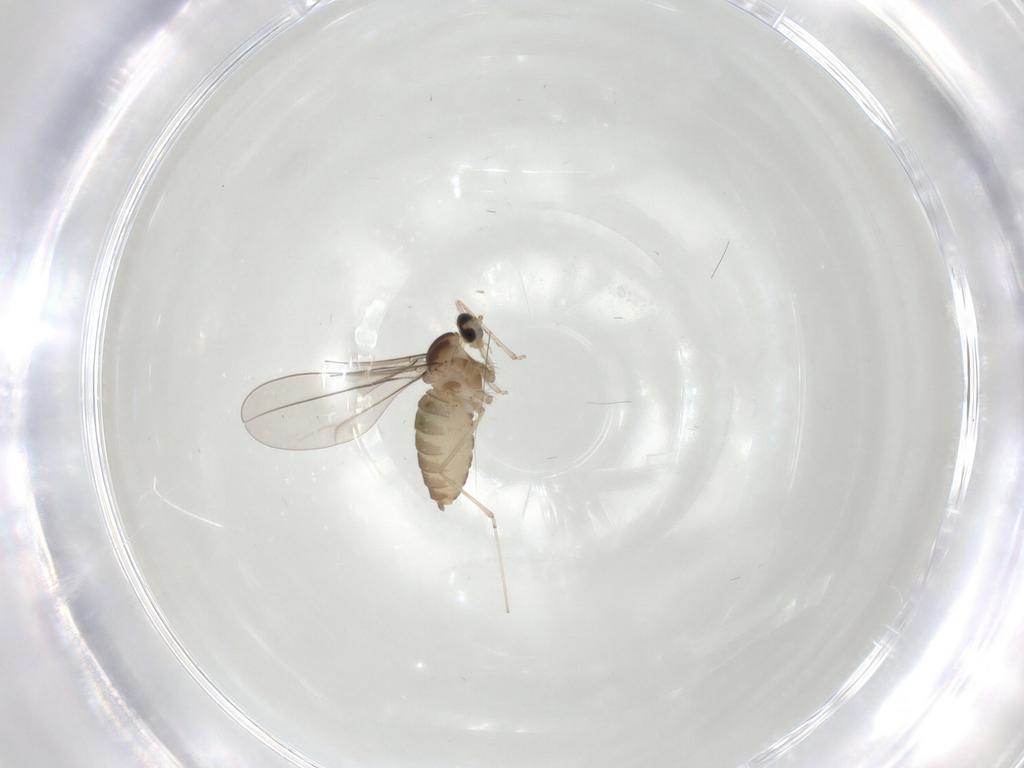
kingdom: Animalia
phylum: Arthropoda
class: Insecta
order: Diptera
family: Cecidomyiidae
